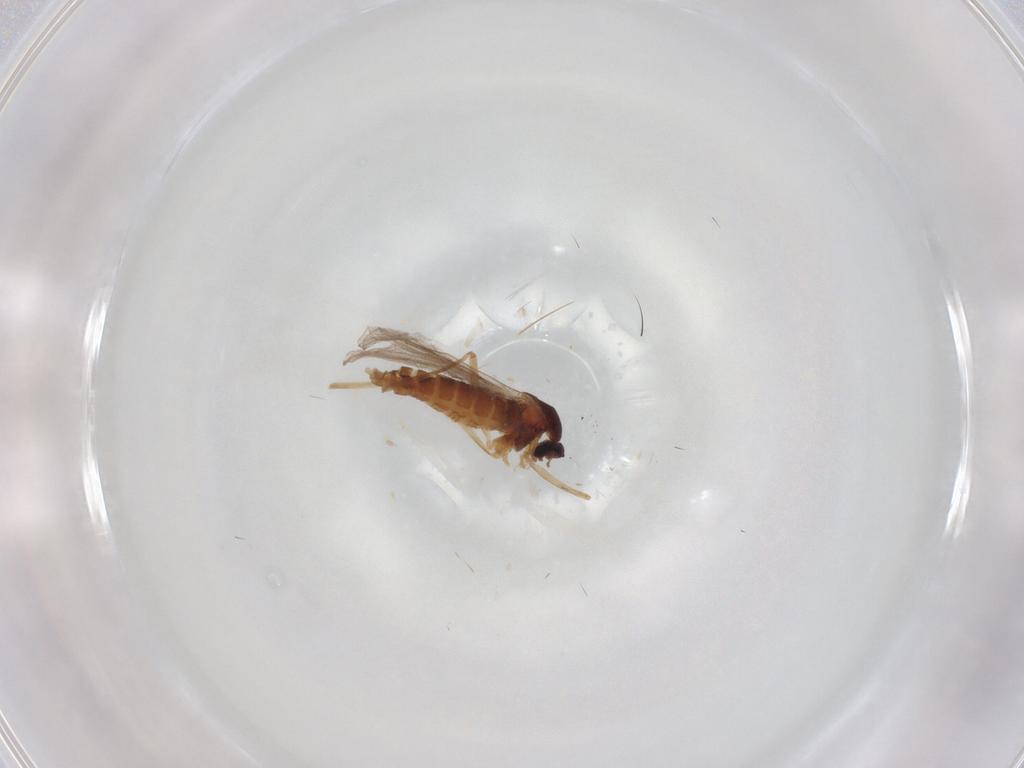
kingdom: Animalia
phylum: Arthropoda
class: Insecta
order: Diptera
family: Cecidomyiidae
